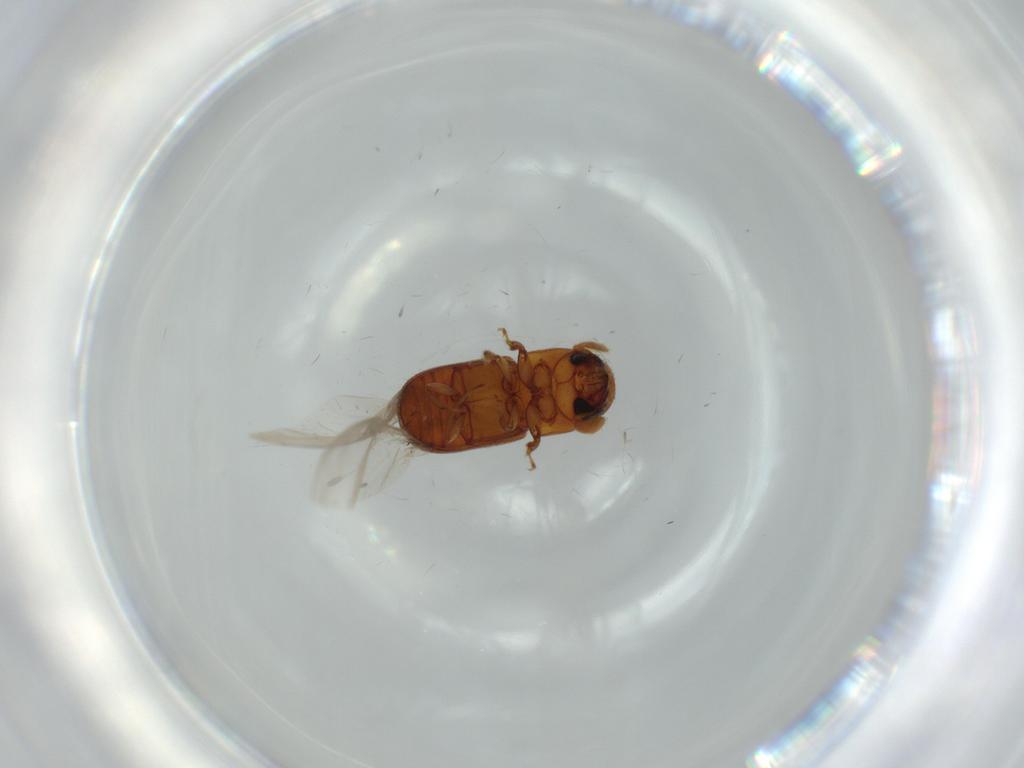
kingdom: Animalia
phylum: Arthropoda
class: Insecta
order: Coleoptera
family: Curculionidae
